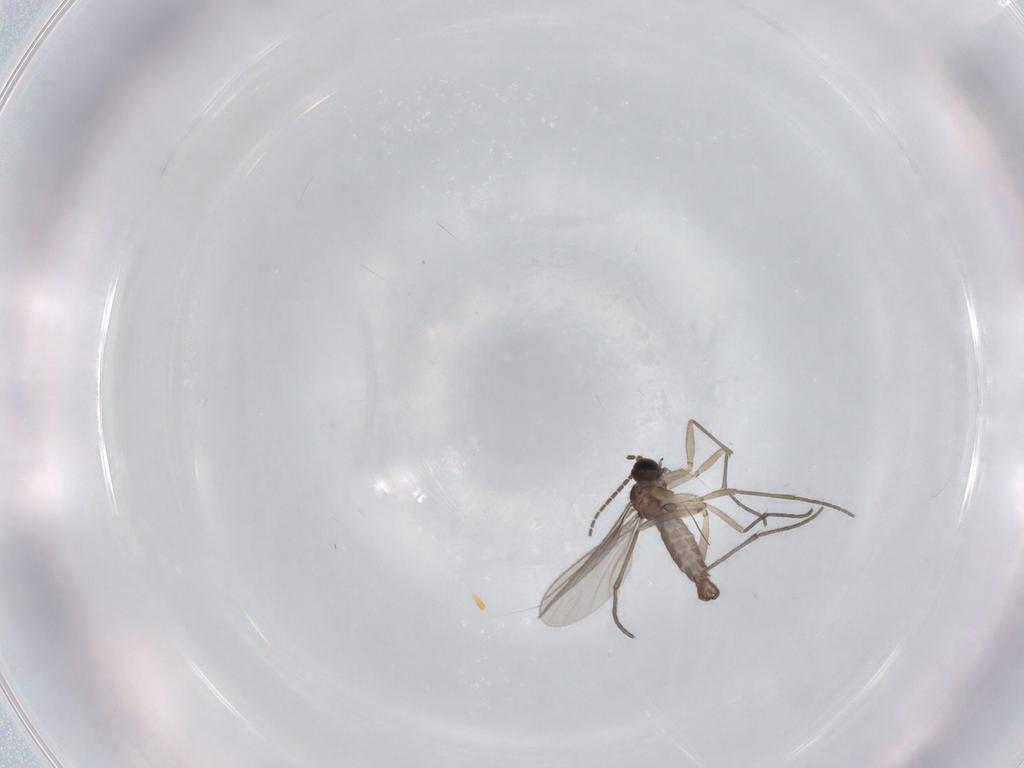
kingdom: Animalia
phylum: Arthropoda
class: Insecta
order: Diptera
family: Sciaridae
